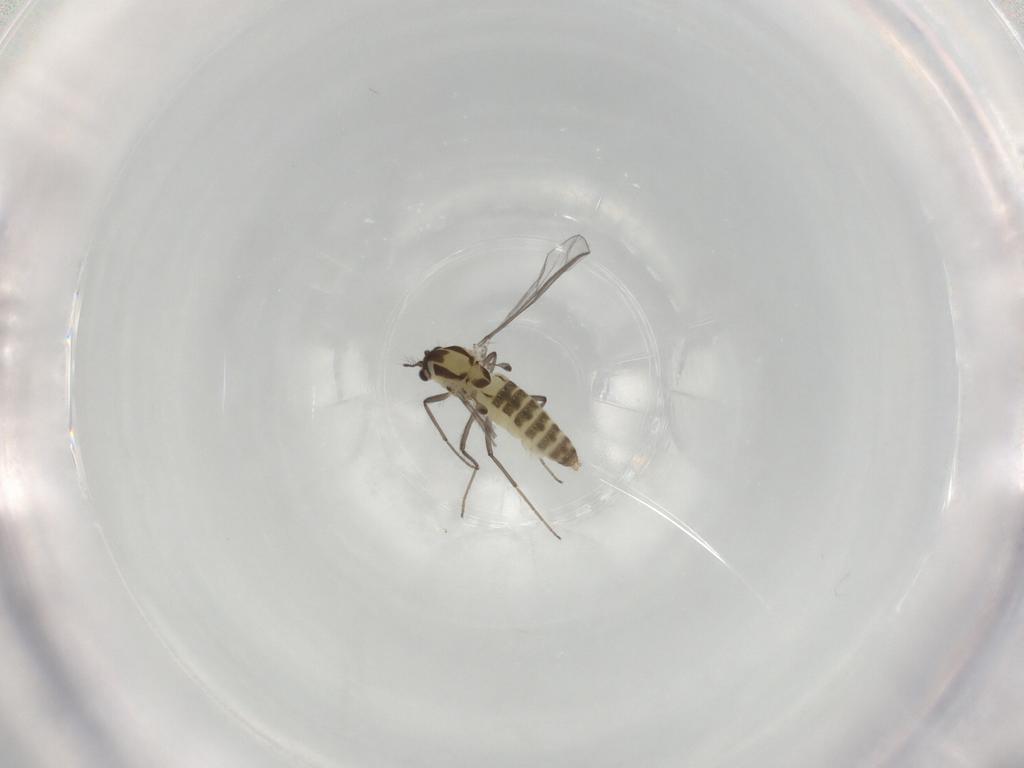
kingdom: Animalia
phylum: Arthropoda
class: Insecta
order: Diptera
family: Chironomidae
